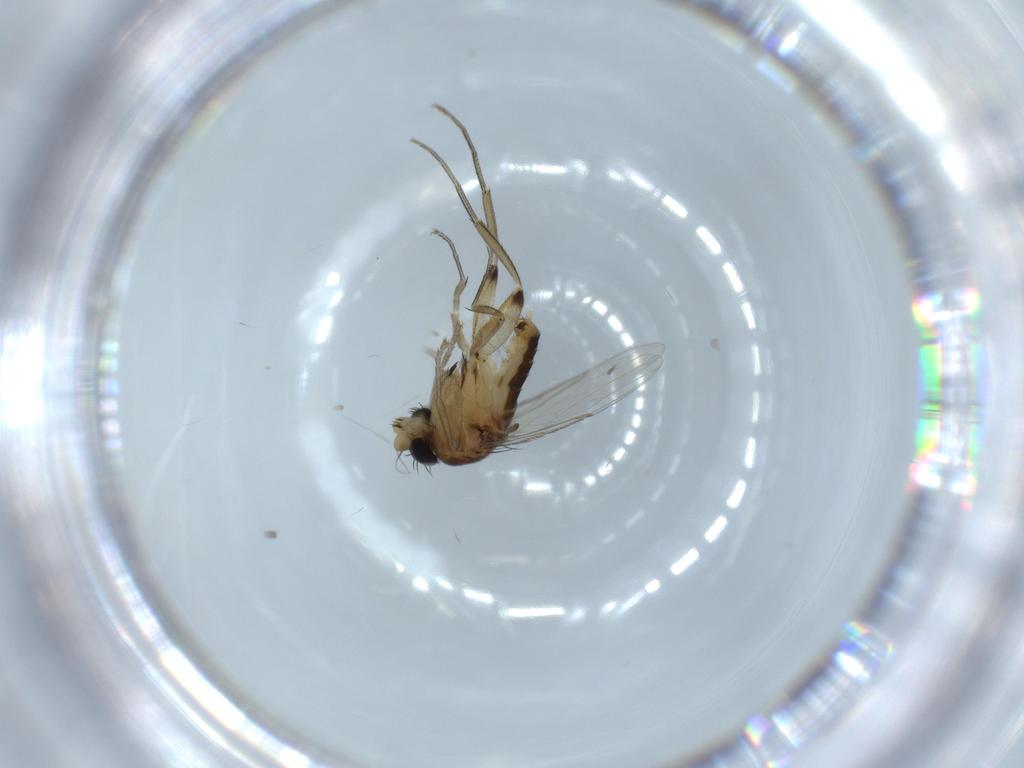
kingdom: Animalia
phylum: Arthropoda
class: Insecta
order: Diptera
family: Phoridae
